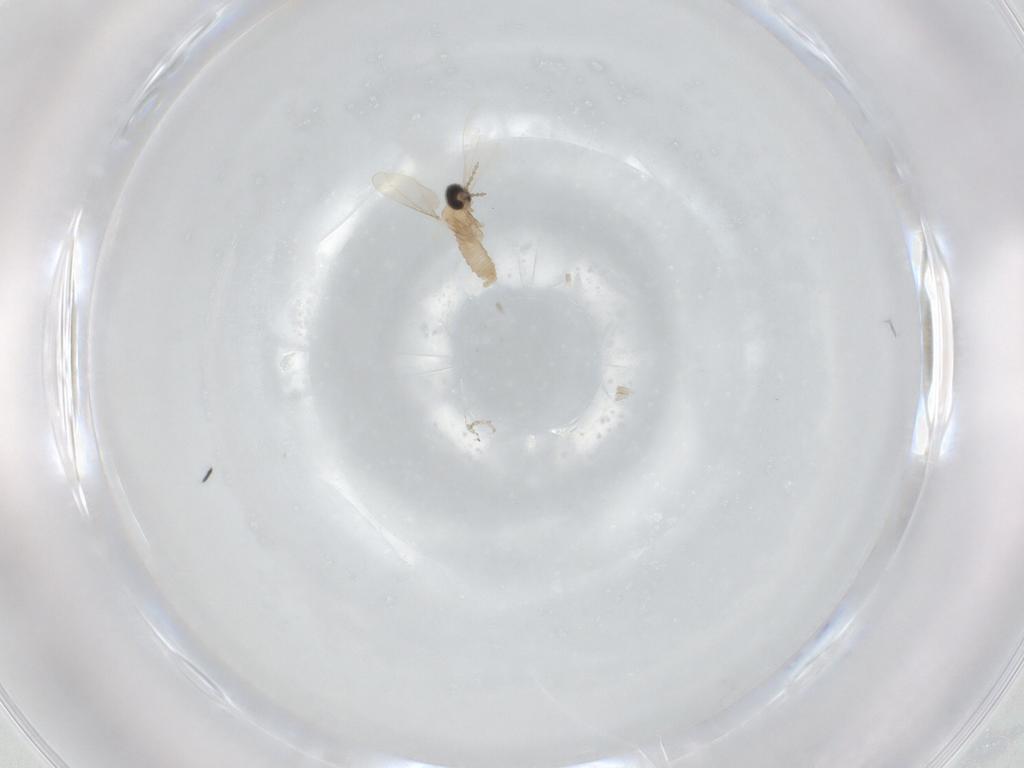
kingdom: Animalia
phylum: Arthropoda
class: Insecta
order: Diptera
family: Cecidomyiidae
